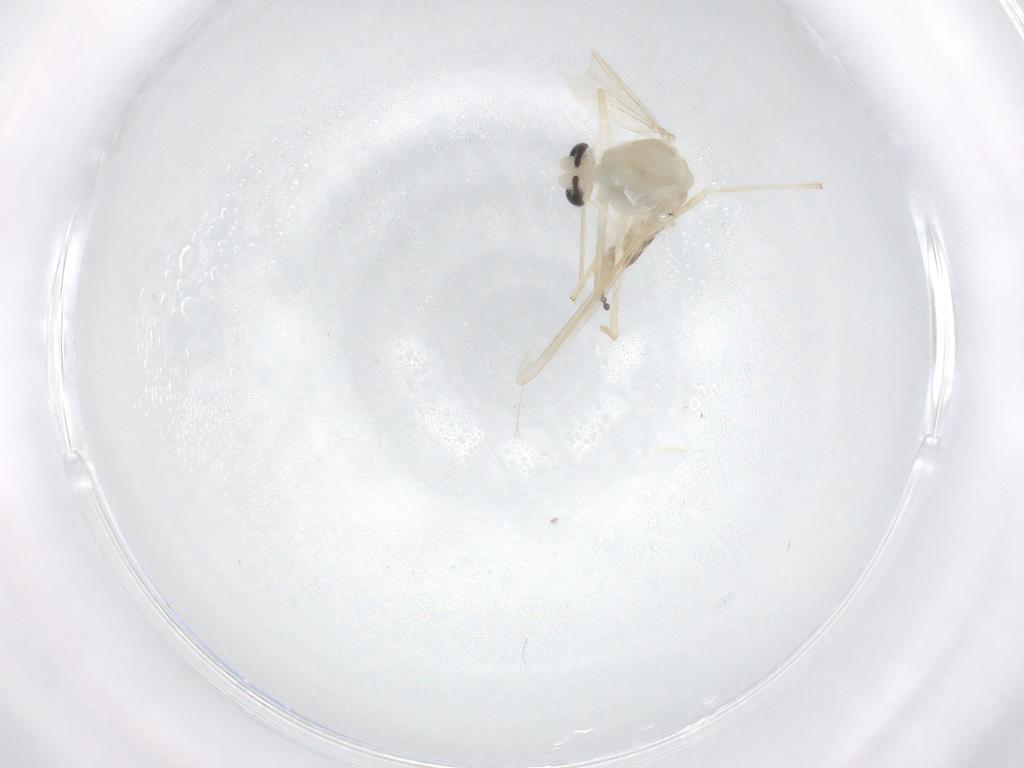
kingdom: Animalia
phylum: Arthropoda
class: Insecta
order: Diptera
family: Chironomidae
